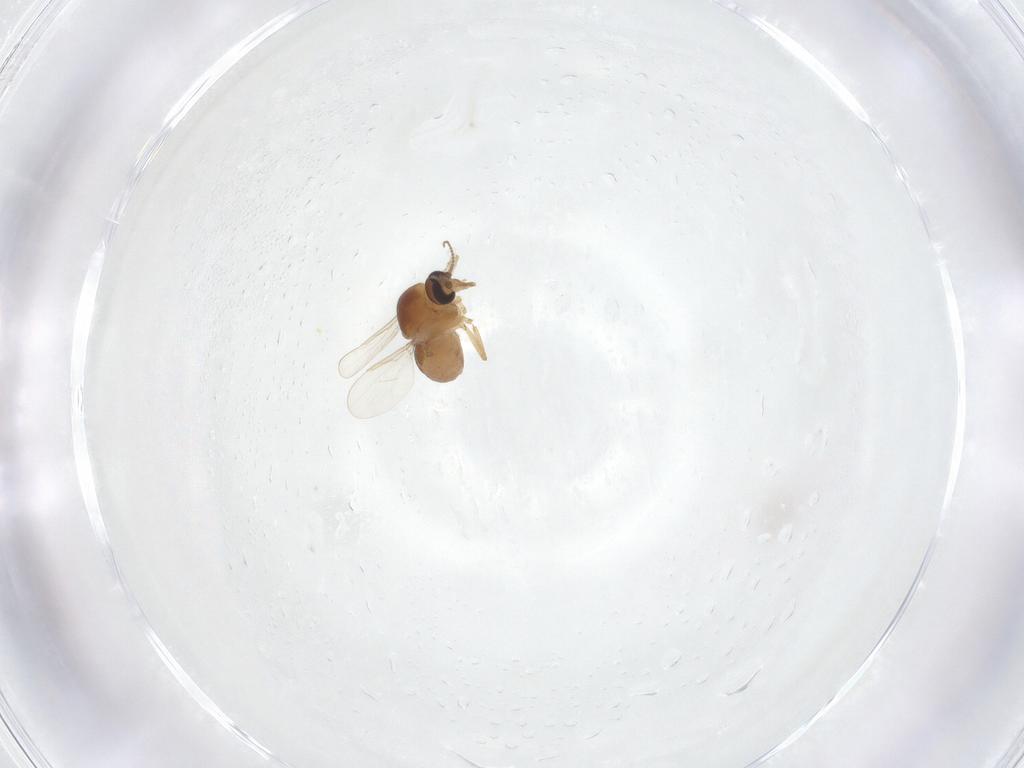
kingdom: Animalia
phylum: Arthropoda
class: Insecta
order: Diptera
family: Ceratopogonidae
